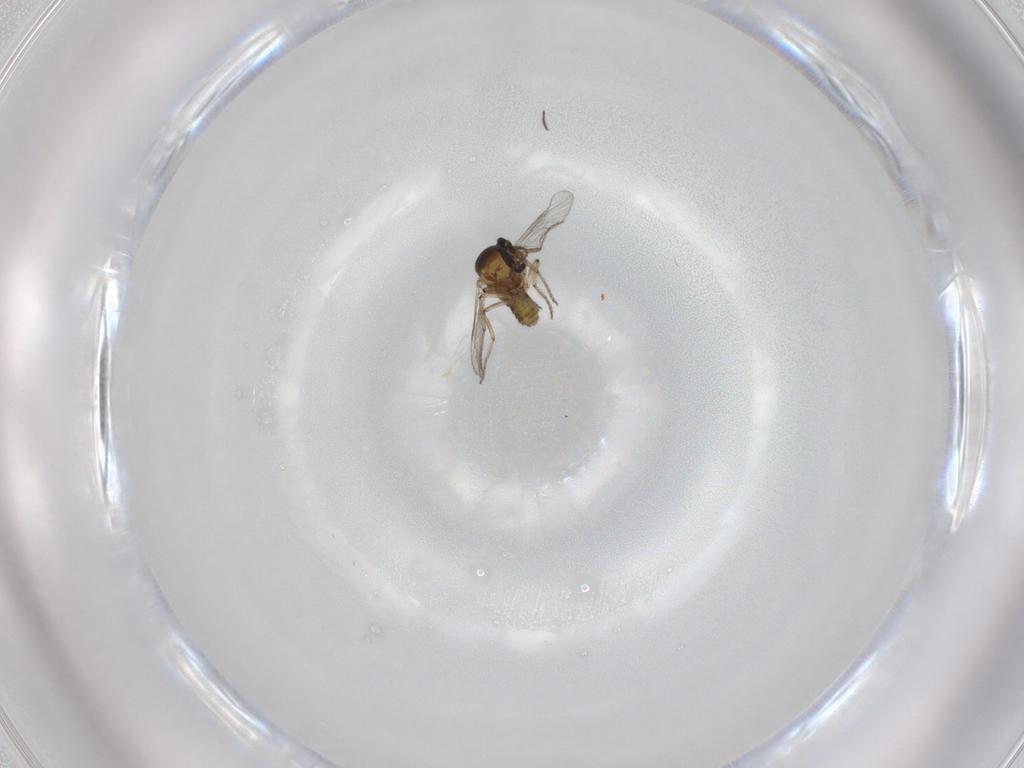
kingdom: Animalia
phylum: Arthropoda
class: Insecta
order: Diptera
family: Ceratopogonidae
